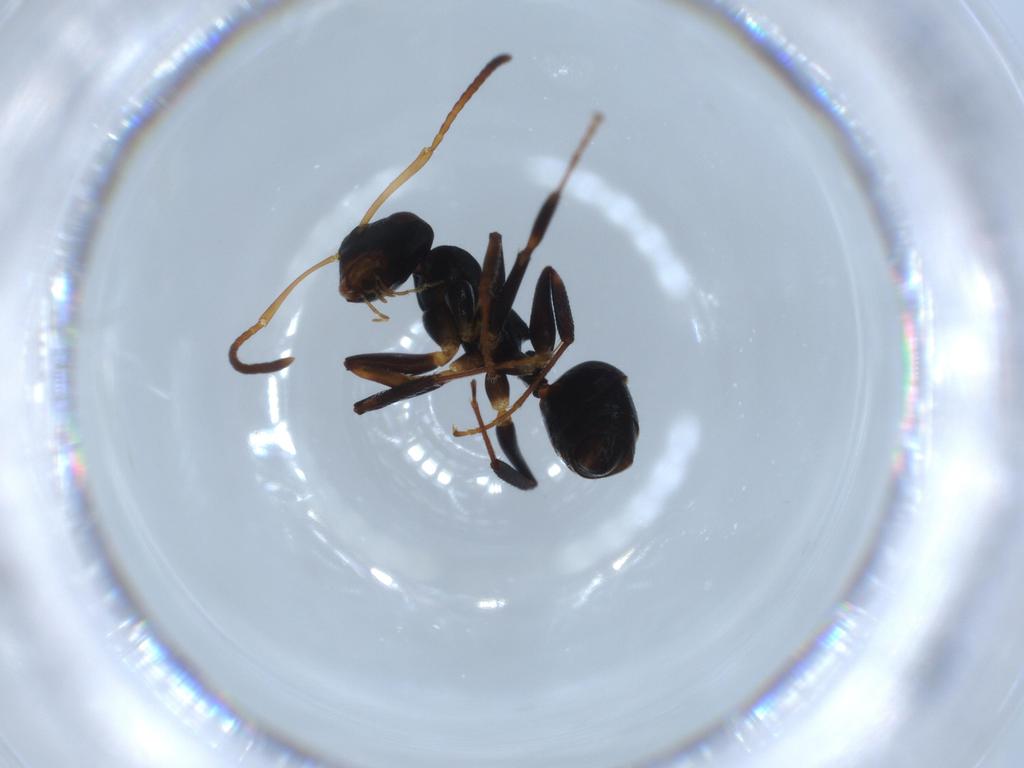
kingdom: Animalia
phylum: Arthropoda
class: Insecta
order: Hymenoptera
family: Formicidae
